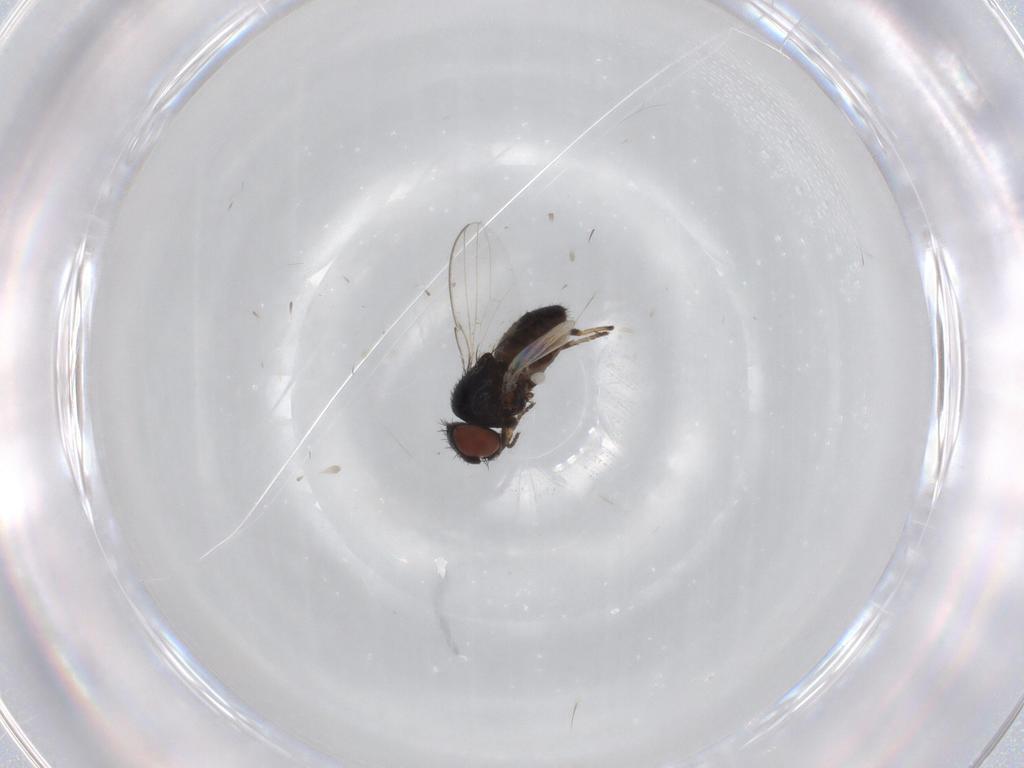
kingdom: Animalia
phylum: Arthropoda
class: Insecta
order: Diptera
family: Milichiidae
